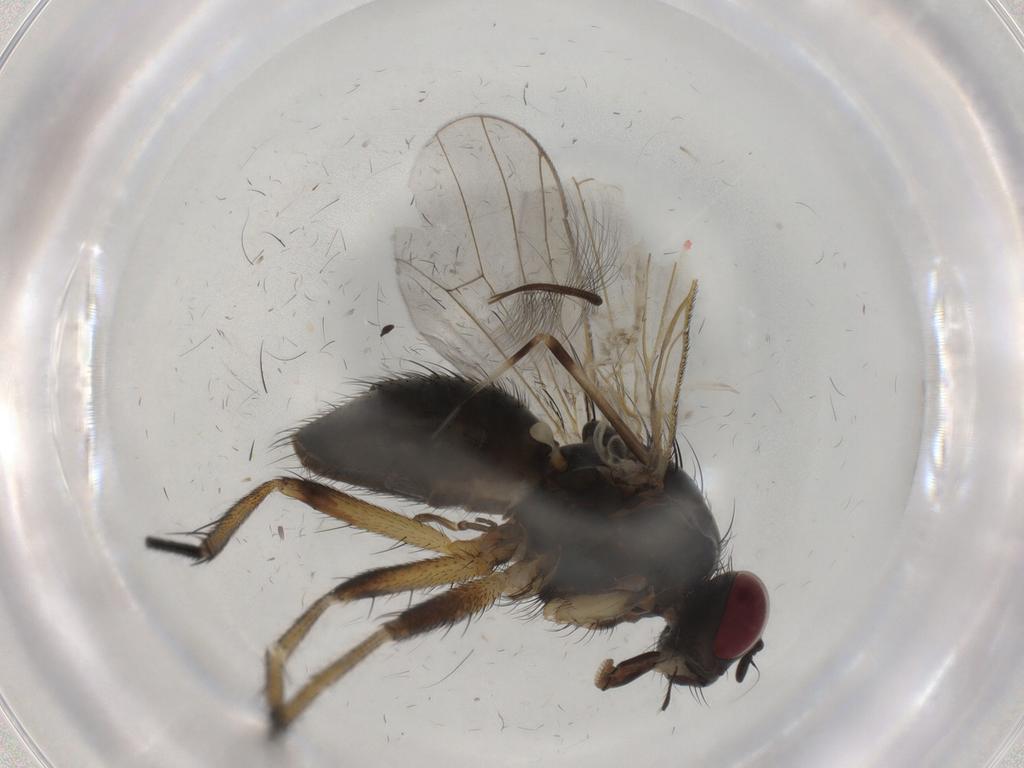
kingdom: Animalia
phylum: Arthropoda
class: Insecta
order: Diptera
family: Sciaridae
